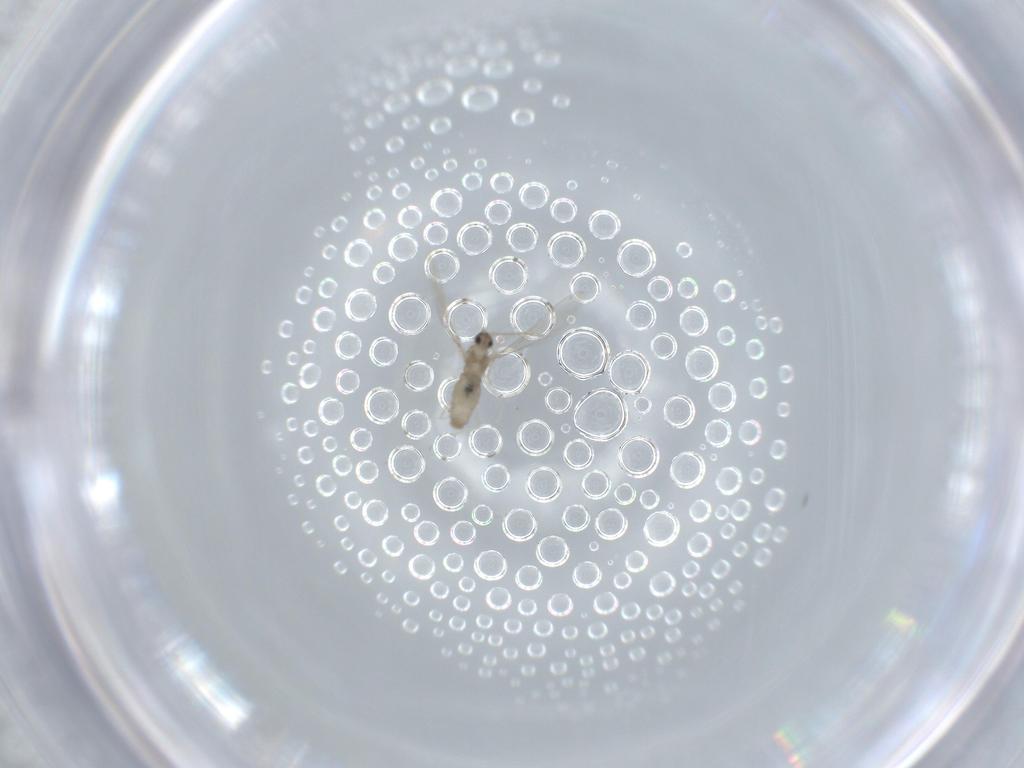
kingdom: Animalia
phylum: Arthropoda
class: Insecta
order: Diptera
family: Cecidomyiidae
